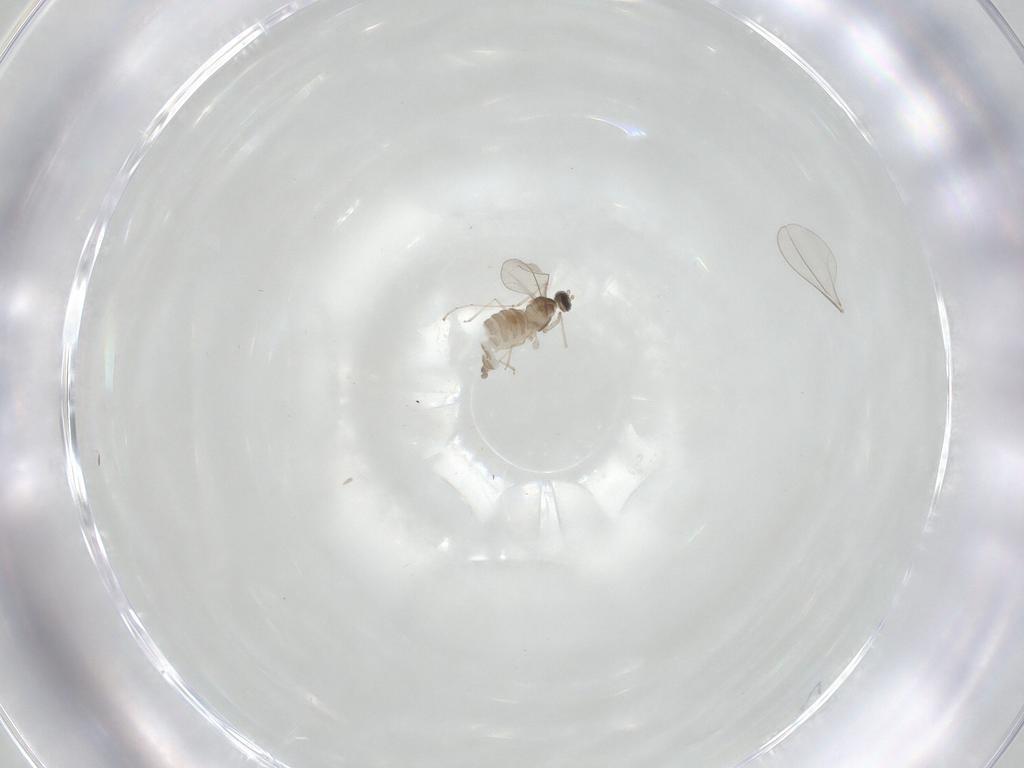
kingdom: Animalia
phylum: Arthropoda
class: Insecta
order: Diptera
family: Cecidomyiidae
